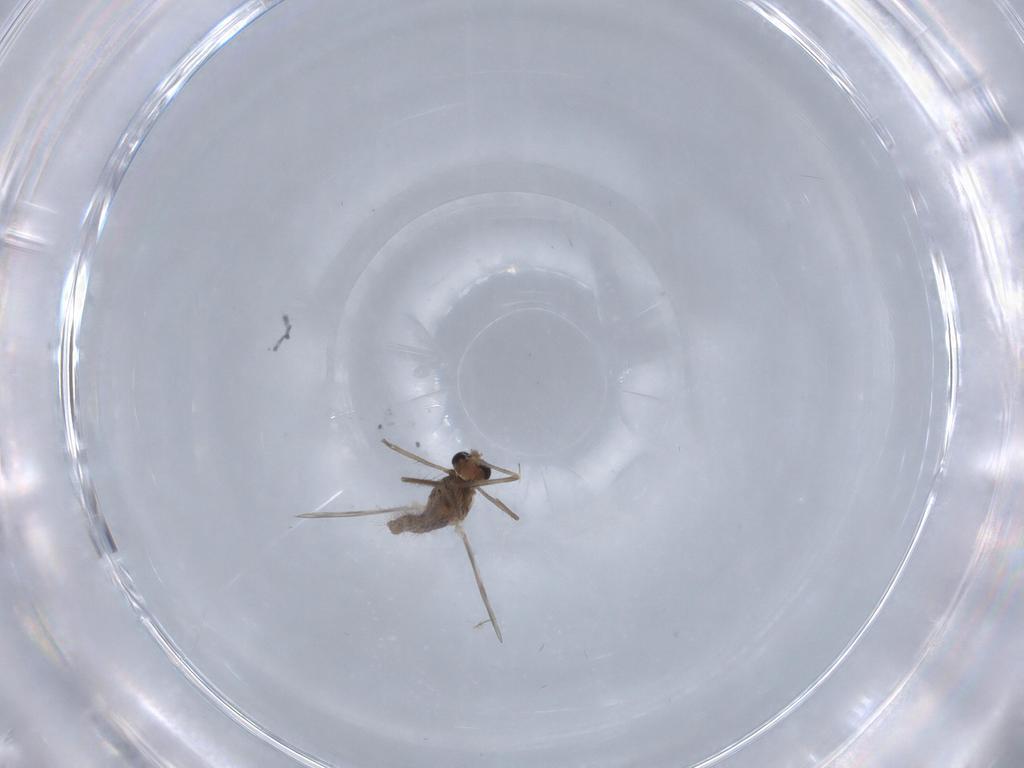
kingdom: Animalia
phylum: Arthropoda
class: Insecta
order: Diptera
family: Chironomidae
